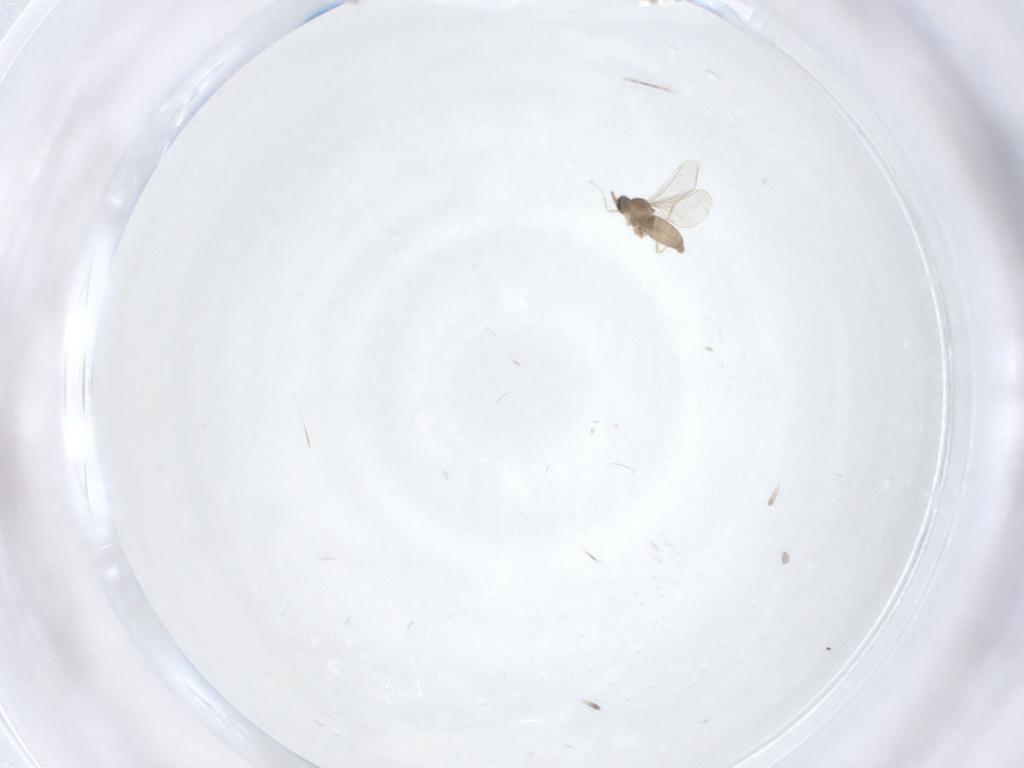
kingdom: Animalia
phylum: Arthropoda
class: Insecta
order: Diptera
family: Cecidomyiidae
